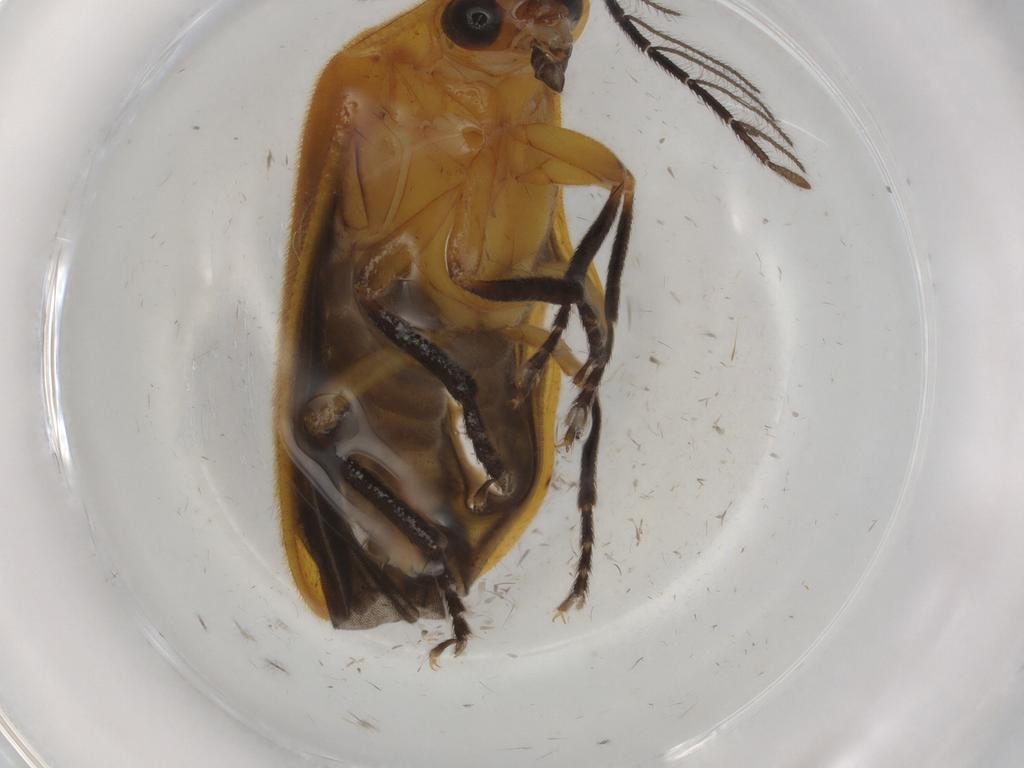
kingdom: Animalia
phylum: Arthropoda
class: Insecta
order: Coleoptera
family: Lampyridae
